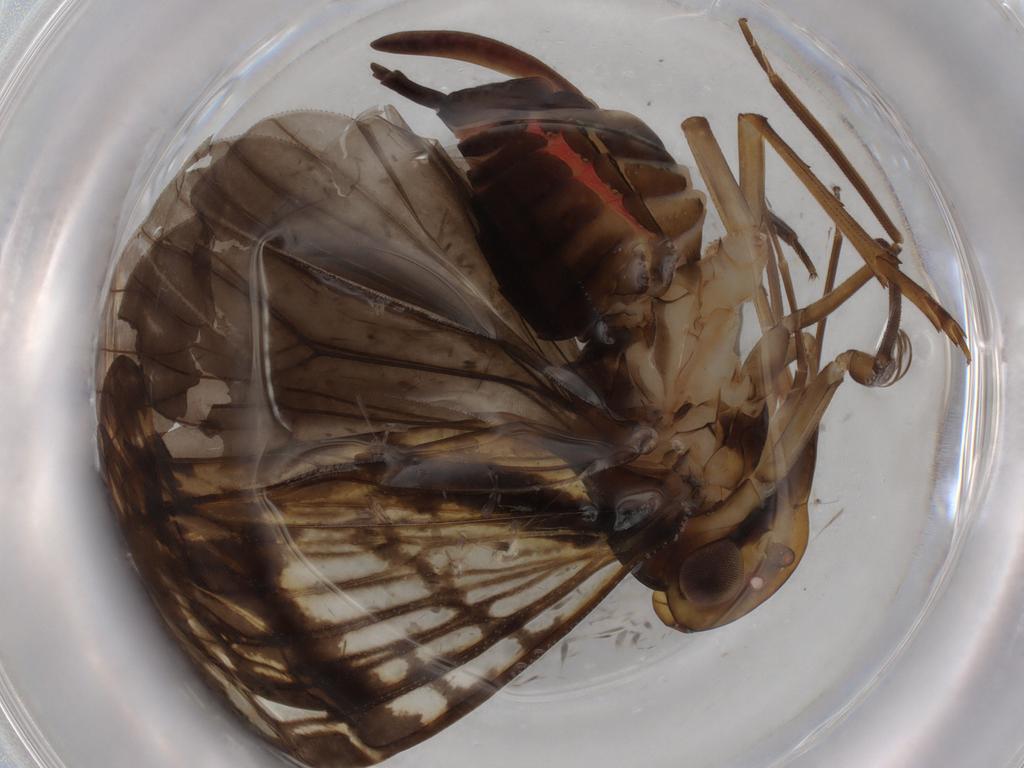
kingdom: Animalia
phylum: Arthropoda
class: Insecta
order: Hemiptera
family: Cixiidae
